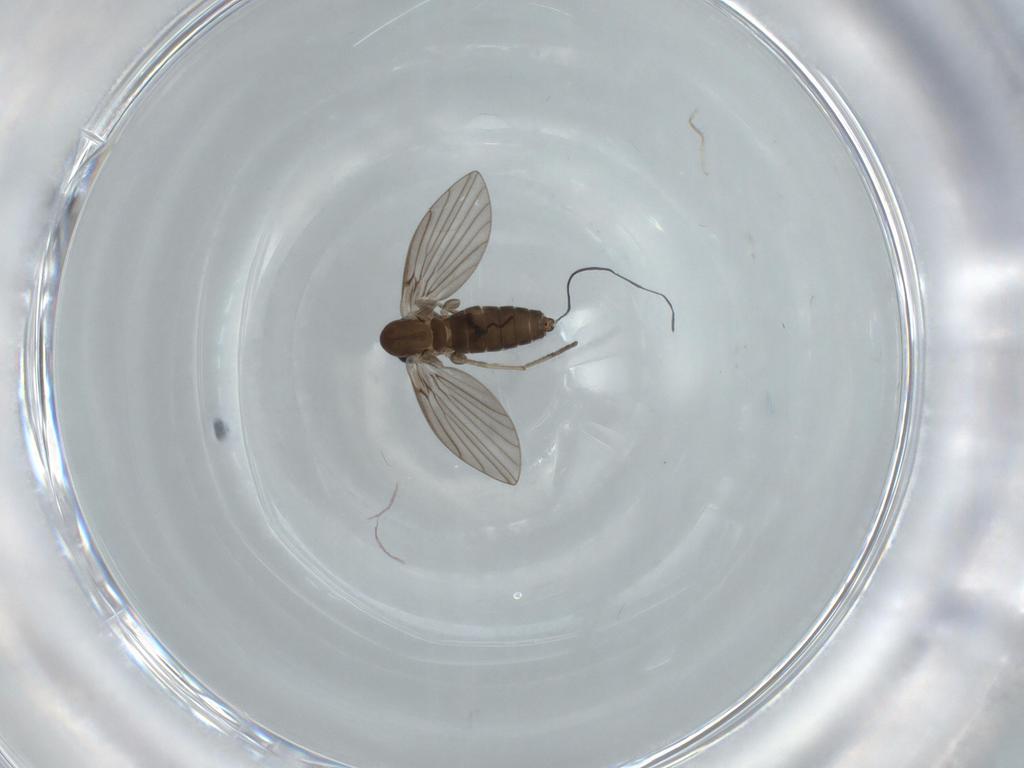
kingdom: Animalia
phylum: Arthropoda
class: Insecta
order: Diptera
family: Psychodidae
